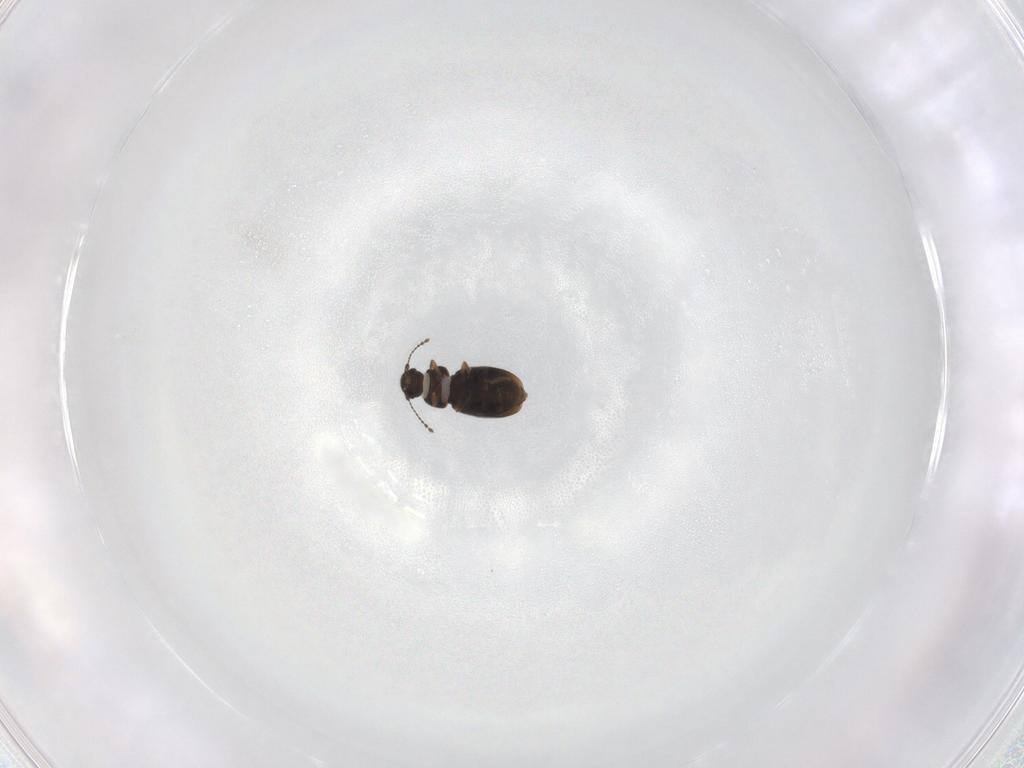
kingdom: Animalia
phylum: Arthropoda
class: Insecta
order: Coleoptera
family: Ptiliidae
